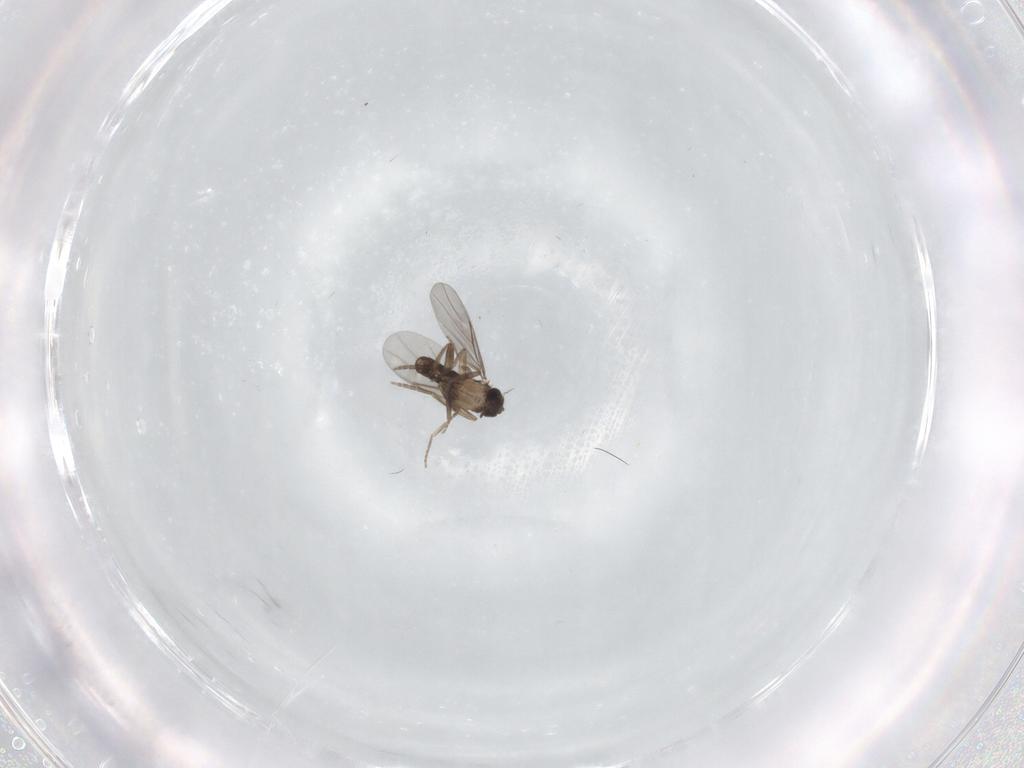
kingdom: Animalia
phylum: Arthropoda
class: Insecta
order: Diptera
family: Cecidomyiidae
